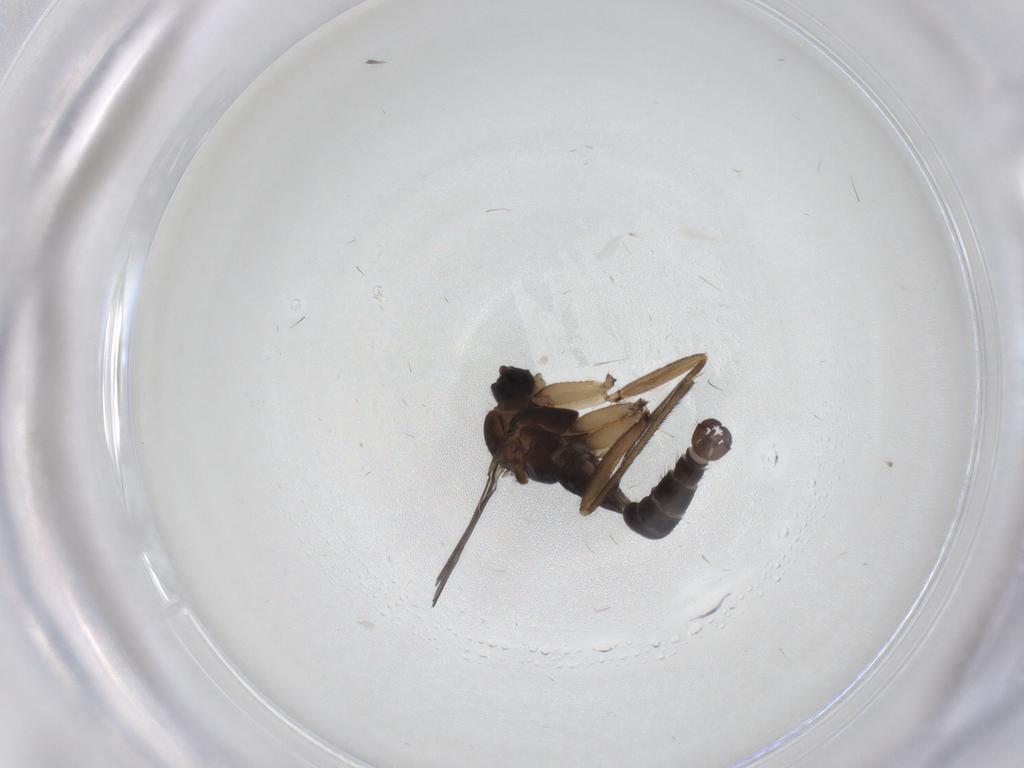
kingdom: Animalia
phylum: Arthropoda
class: Insecta
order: Diptera
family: Sciaridae
